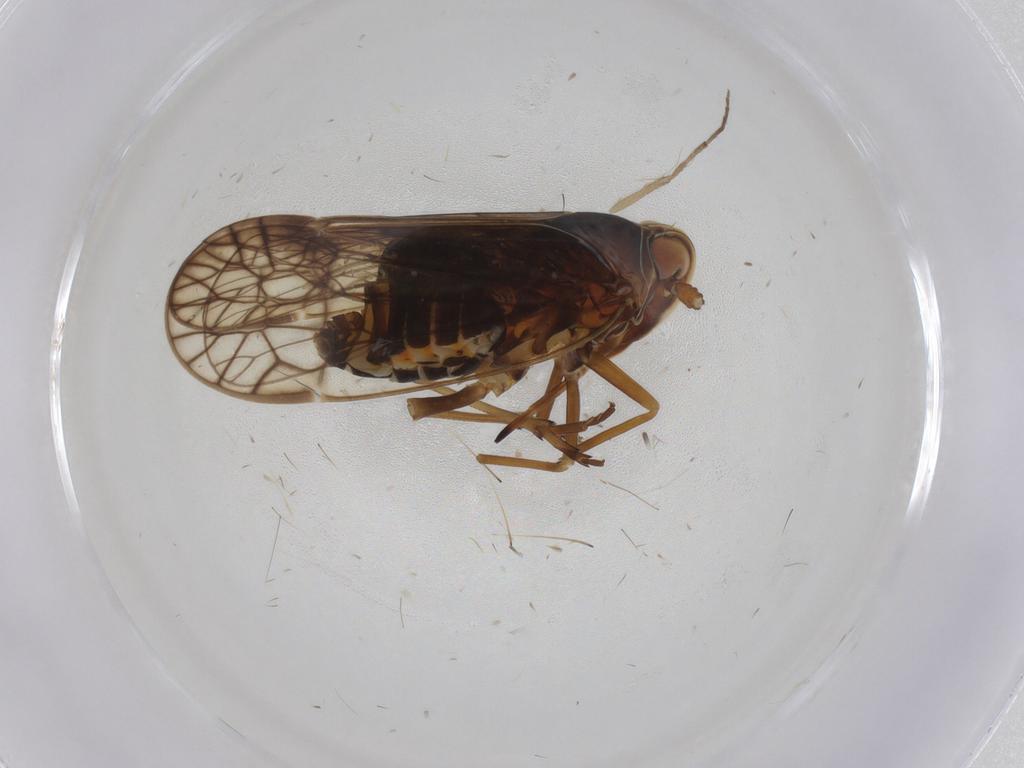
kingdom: Animalia
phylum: Arthropoda
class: Insecta
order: Hemiptera
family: Kinnaridae
